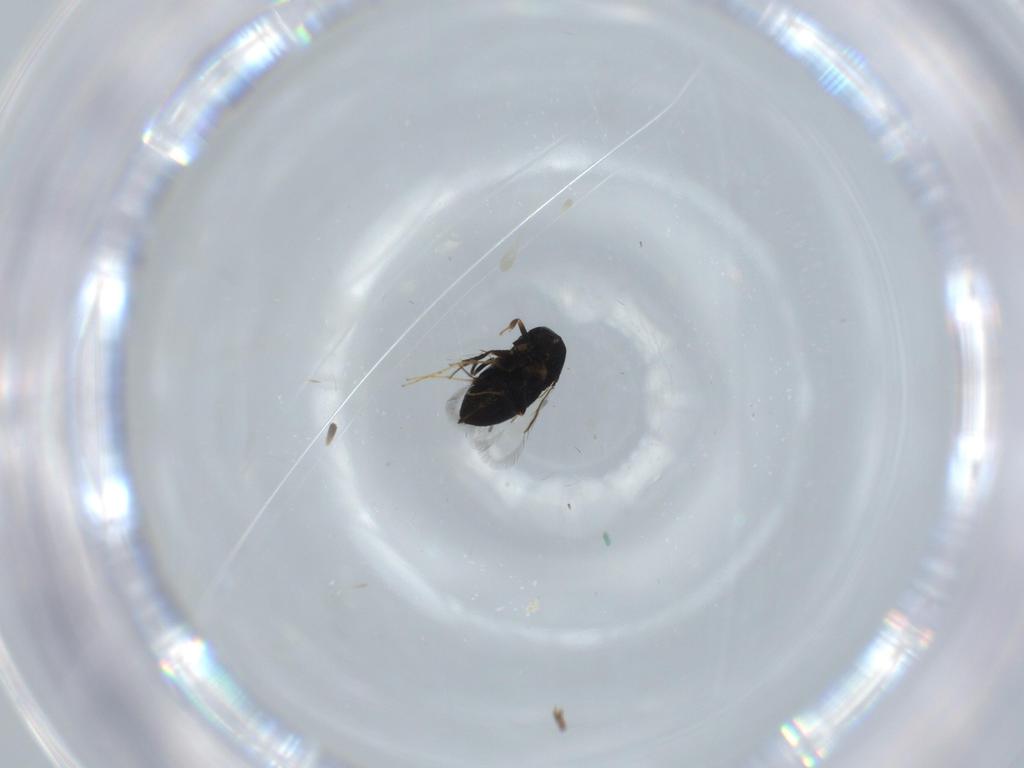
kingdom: Animalia
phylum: Arthropoda
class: Insecta
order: Hymenoptera
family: Signiphoridae
